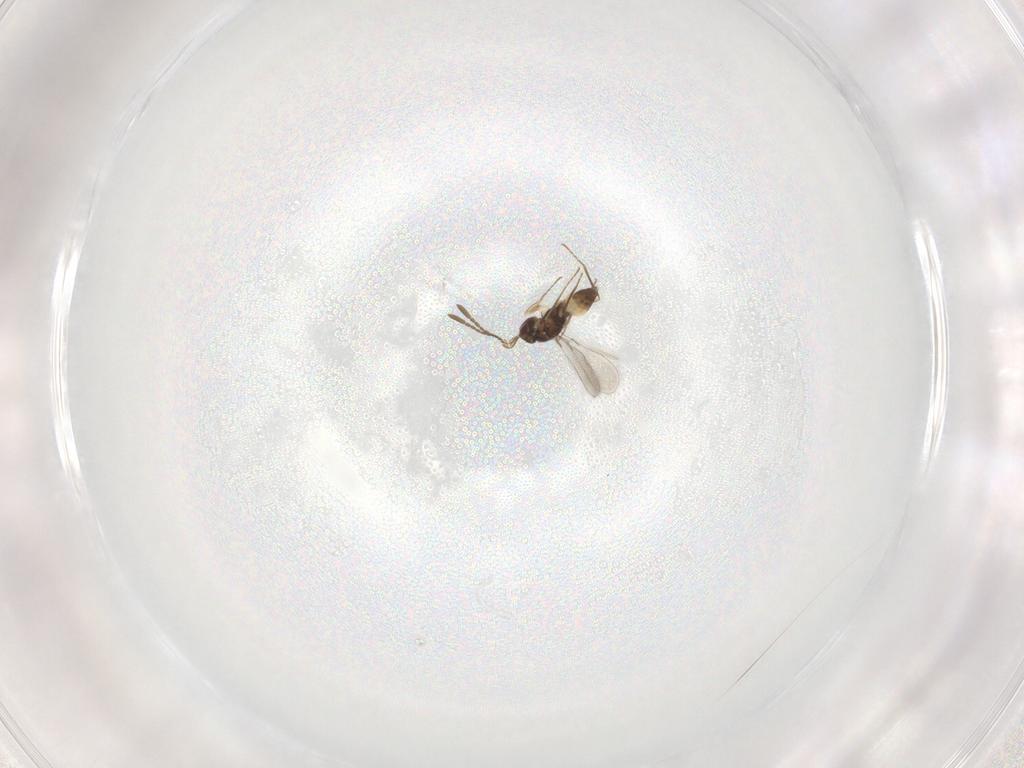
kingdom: Animalia
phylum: Arthropoda
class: Insecta
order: Hymenoptera
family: Mymaridae
